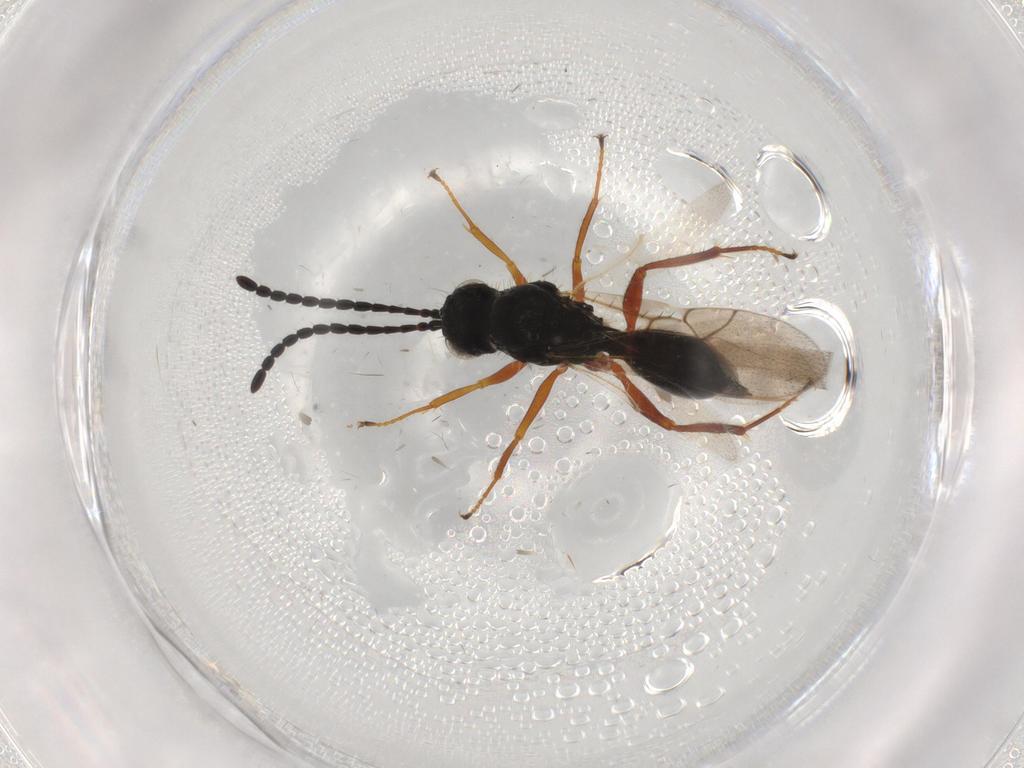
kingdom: Animalia
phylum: Arthropoda
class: Insecta
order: Hymenoptera
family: Figitidae
